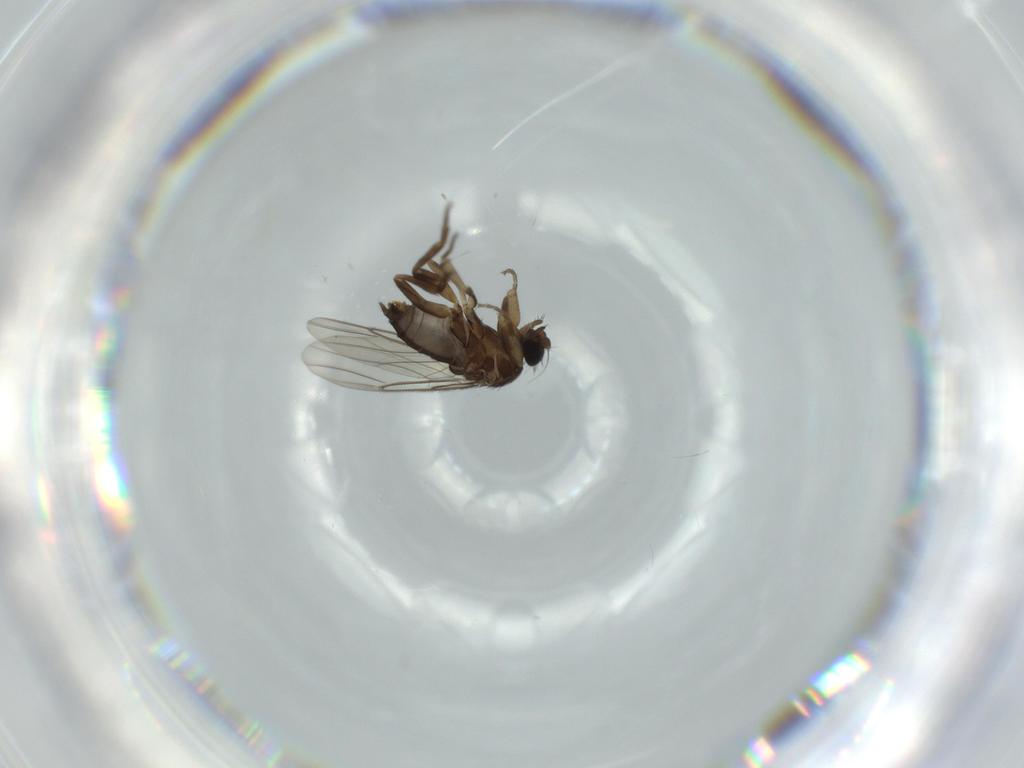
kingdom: Animalia
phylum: Arthropoda
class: Insecta
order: Diptera
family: Phoridae
